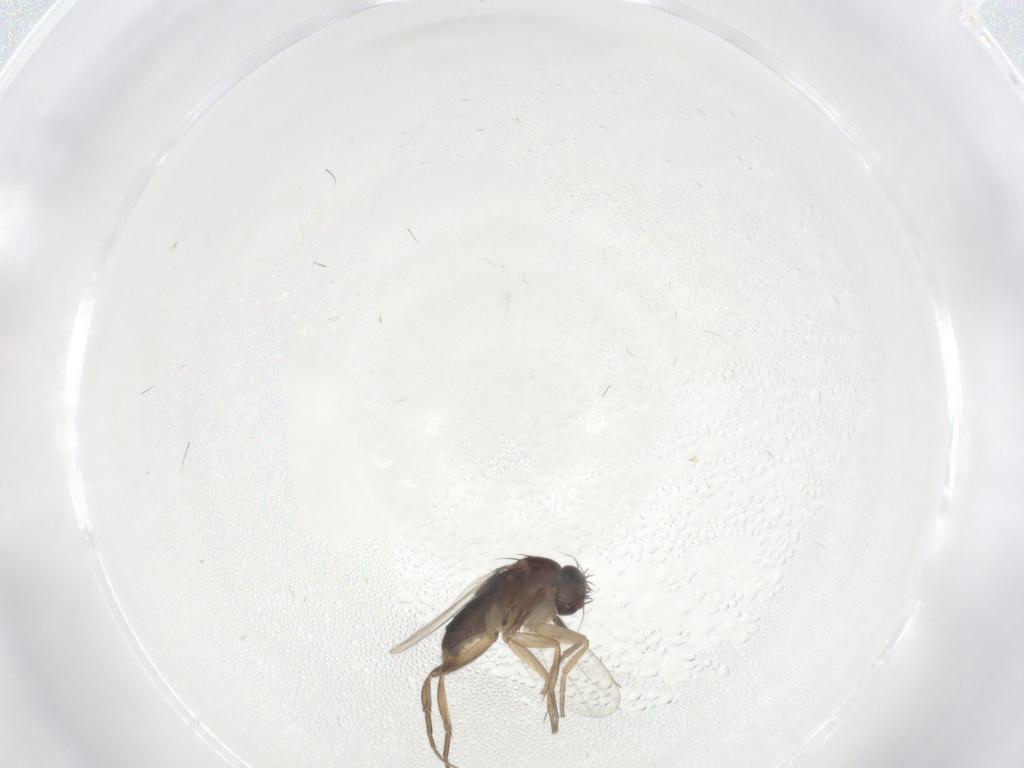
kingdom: Animalia
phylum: Arthropoda
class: Insecta
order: Diptera
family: Phoridae
